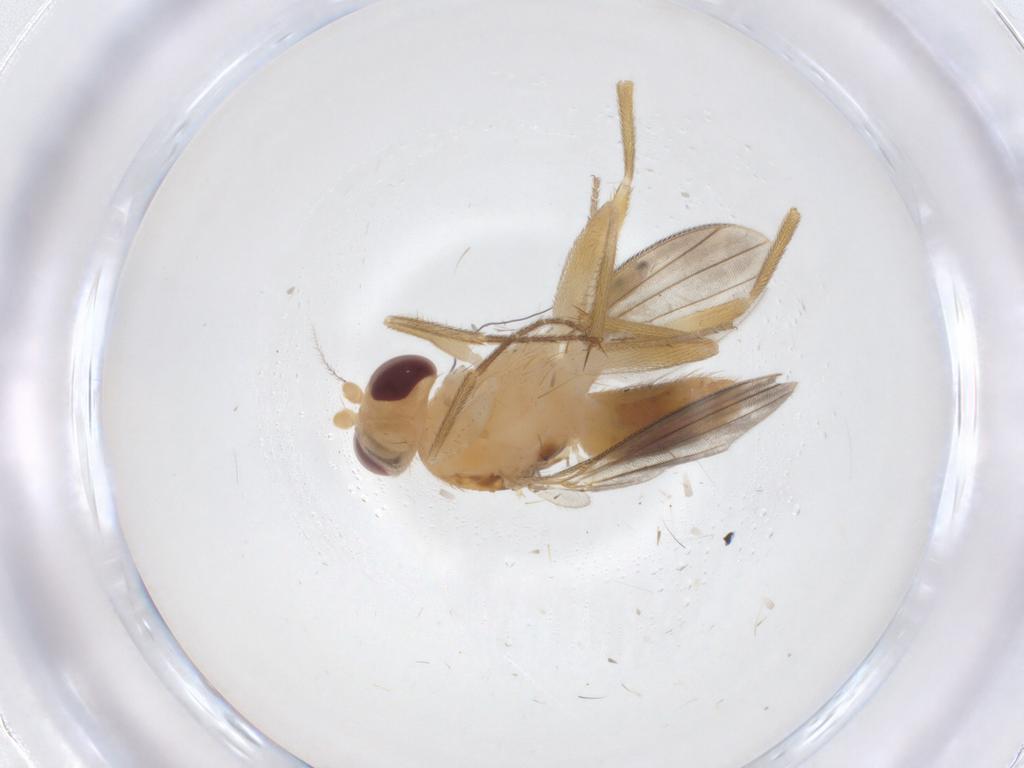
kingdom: Animalia
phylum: Arthropoda
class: Insecta
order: Diptera
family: Agromyzidae
